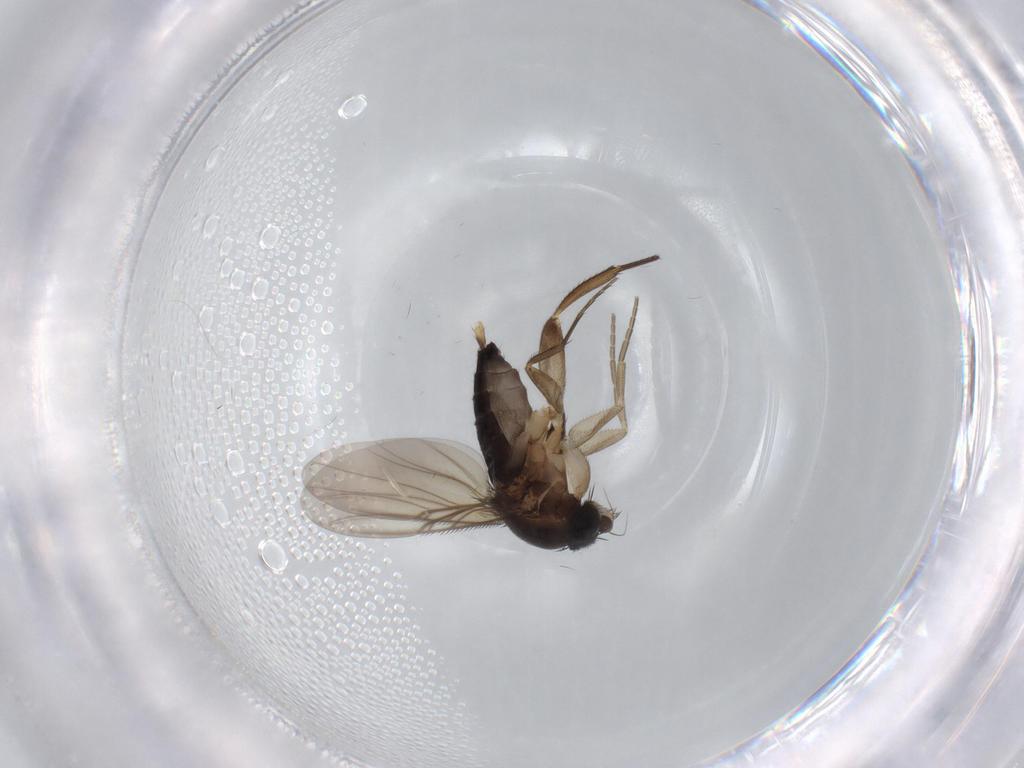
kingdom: Animalia
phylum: Arthropoda
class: Insecta
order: Diptera
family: Phoridae
